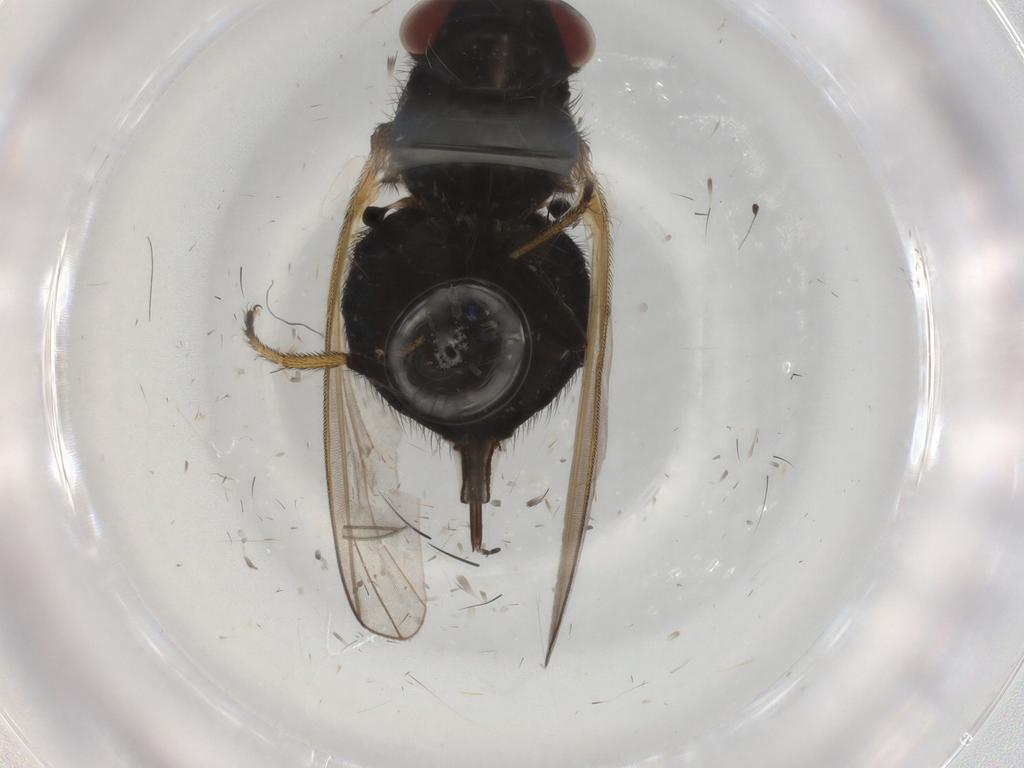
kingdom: Animalia
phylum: Arthropoda
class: Insecta
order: Diptera
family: Lonchaeidae
